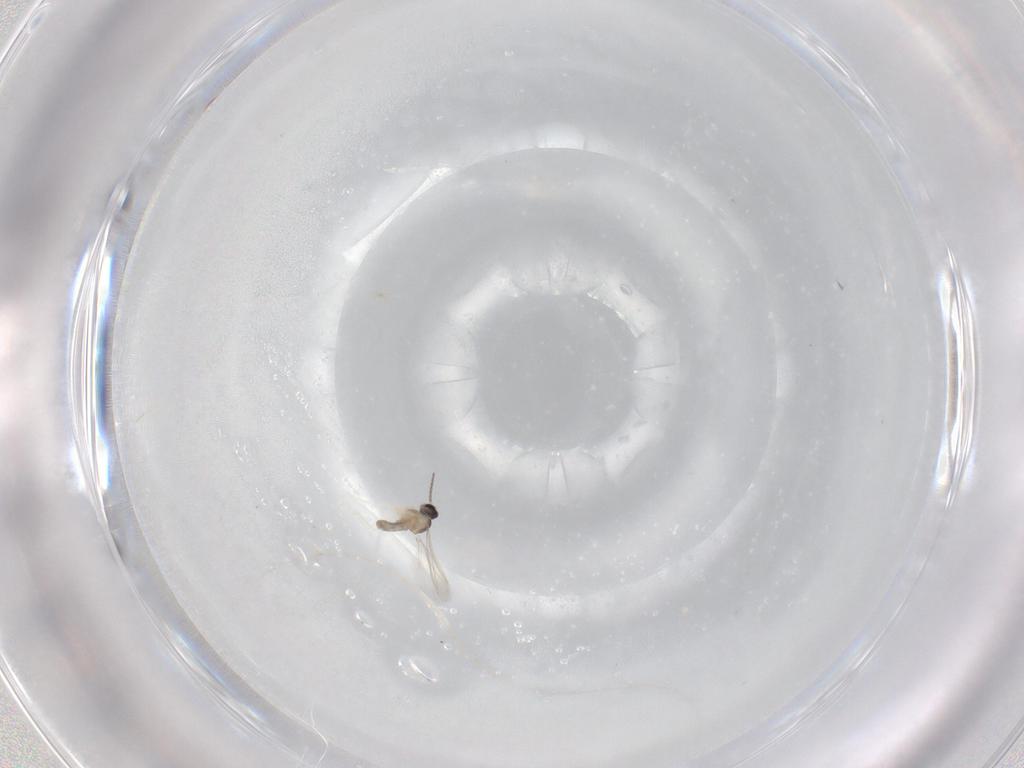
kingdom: Animalia
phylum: Arthropoda
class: Insecta
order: Diptera
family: Cecidomyiidae
